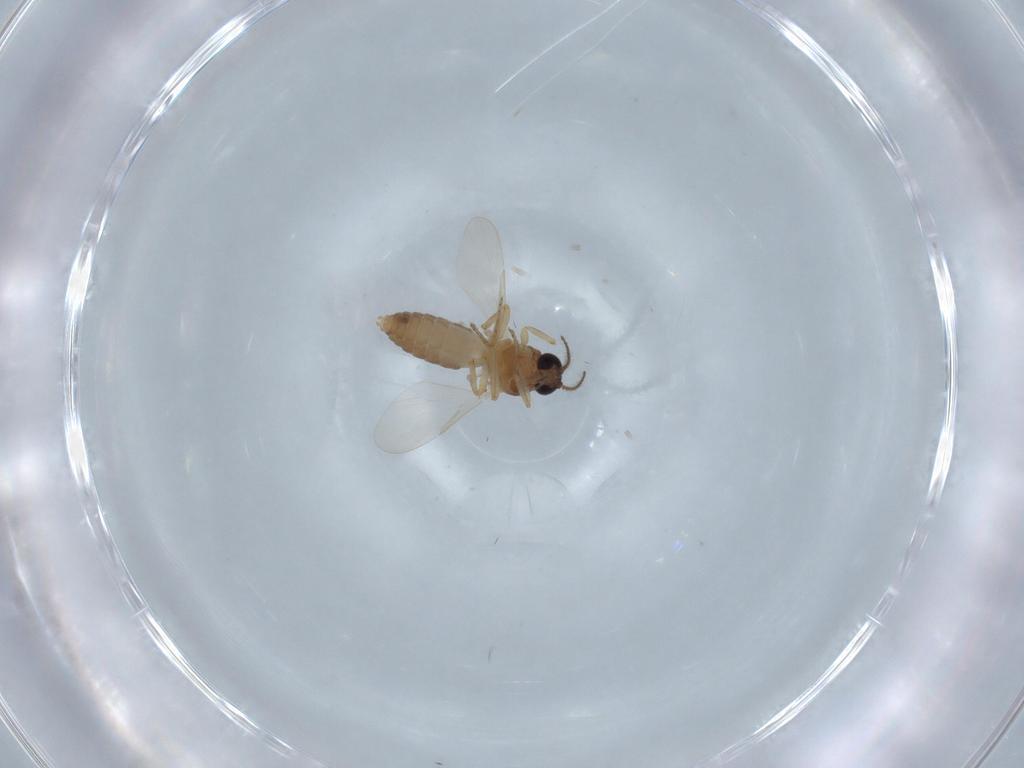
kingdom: Animalia
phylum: Arthropoda
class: Insecta
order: Diptera
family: Ceratopogonidae
